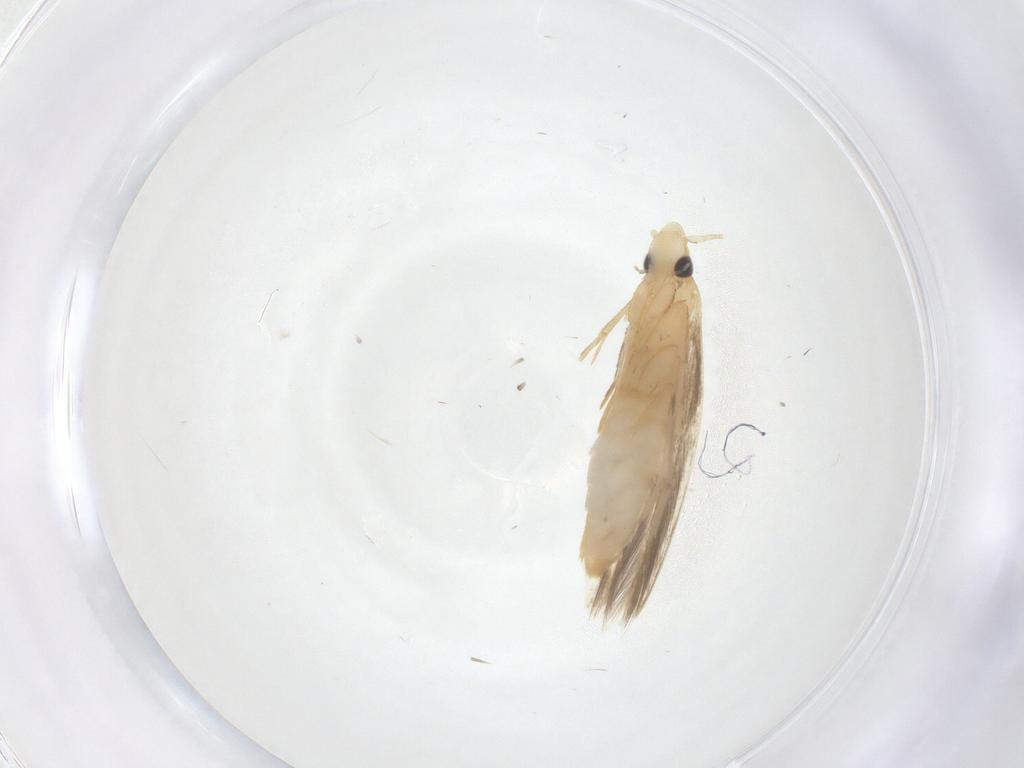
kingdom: Animalia
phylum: Arthropoda
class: Insecta
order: Lepidoptera
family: Tineidae
